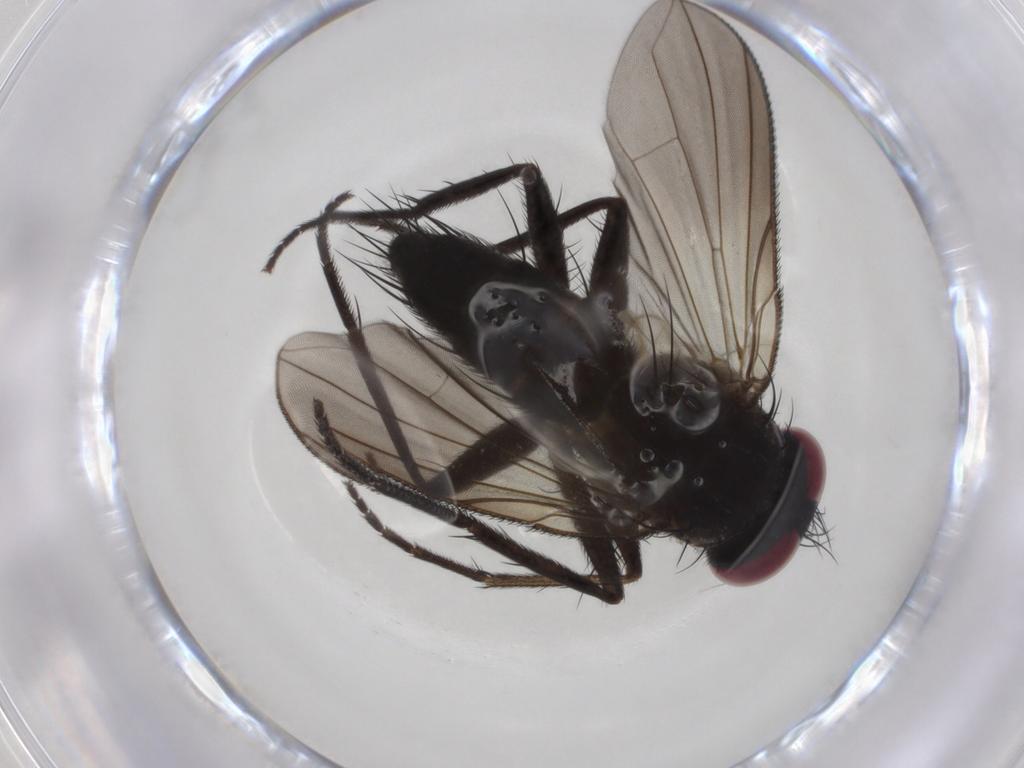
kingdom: Animalia
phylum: Arthropoda
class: Insecta
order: Diptera
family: Tachinidae
